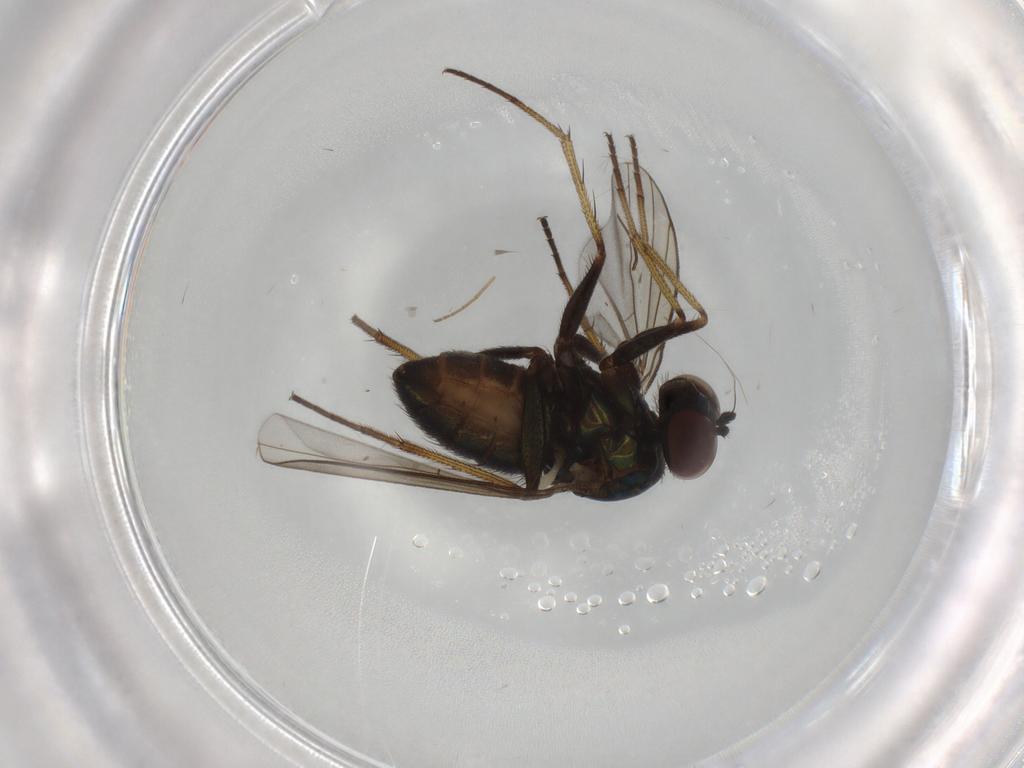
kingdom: Animalia
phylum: Arthropoda
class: Insecta
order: Diptera
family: Dolichopodidae
